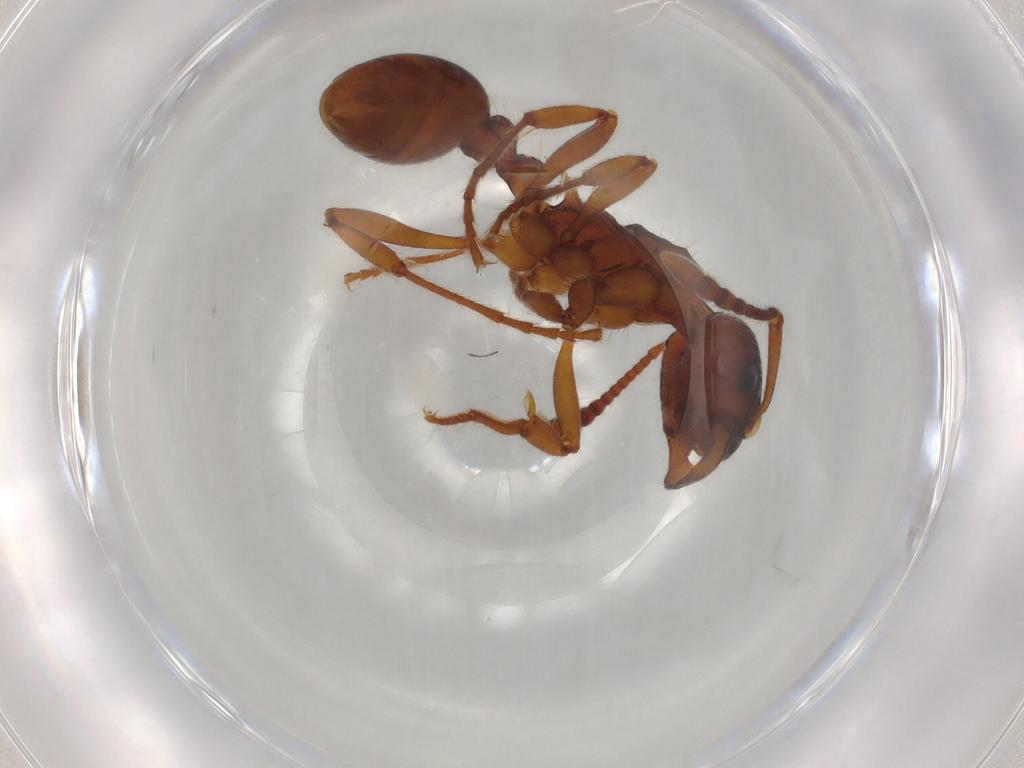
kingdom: Animalia
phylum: Arthropoda
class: Insecta
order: Hymenoptera
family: Formicidae
